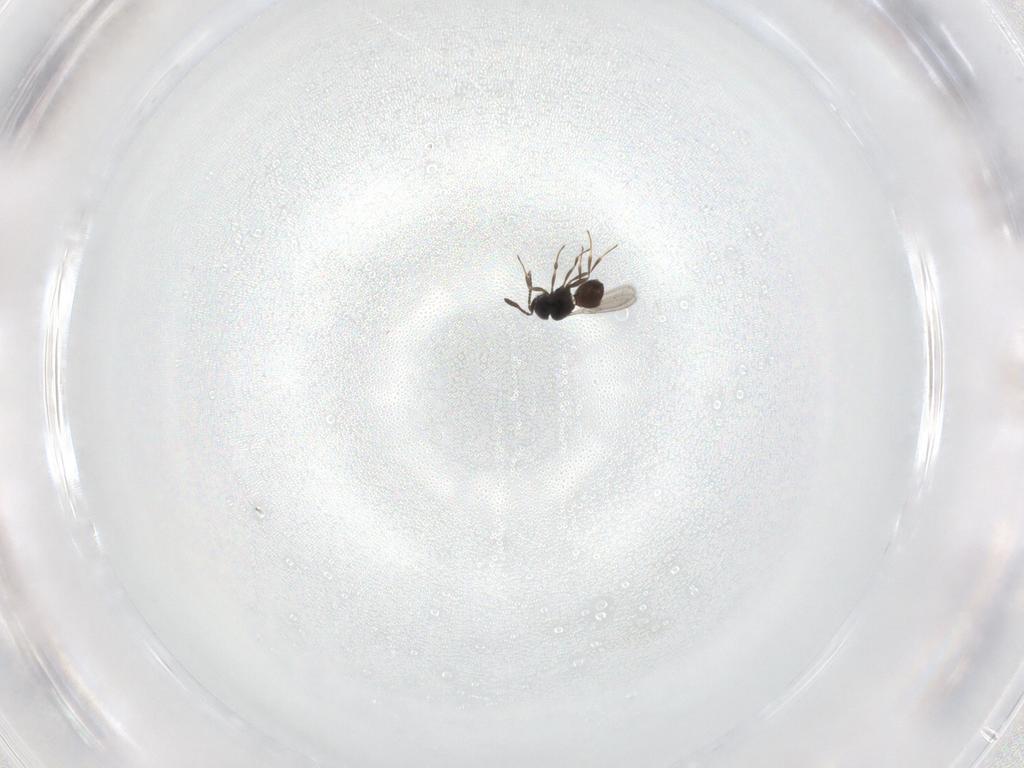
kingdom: Animalia
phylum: Arthropoda
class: Insecta
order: Hymenoptera
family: Scelionidae
